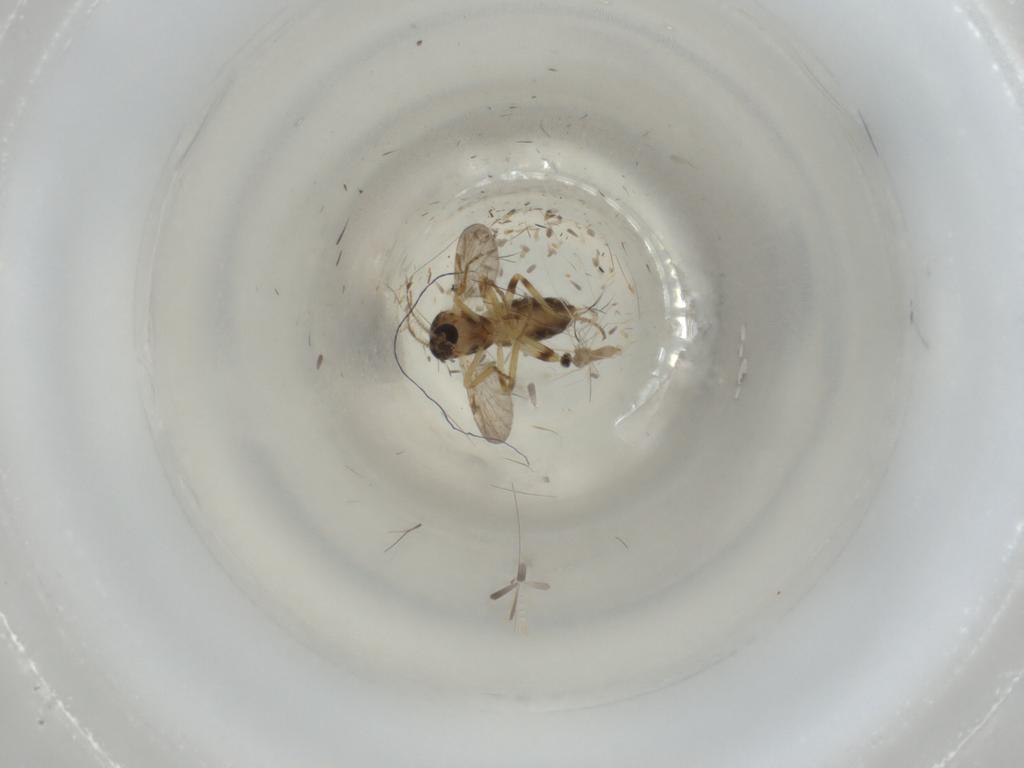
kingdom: Animalia
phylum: Arthropoda
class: Insecta
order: Diptera
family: Ceratopogonidae
